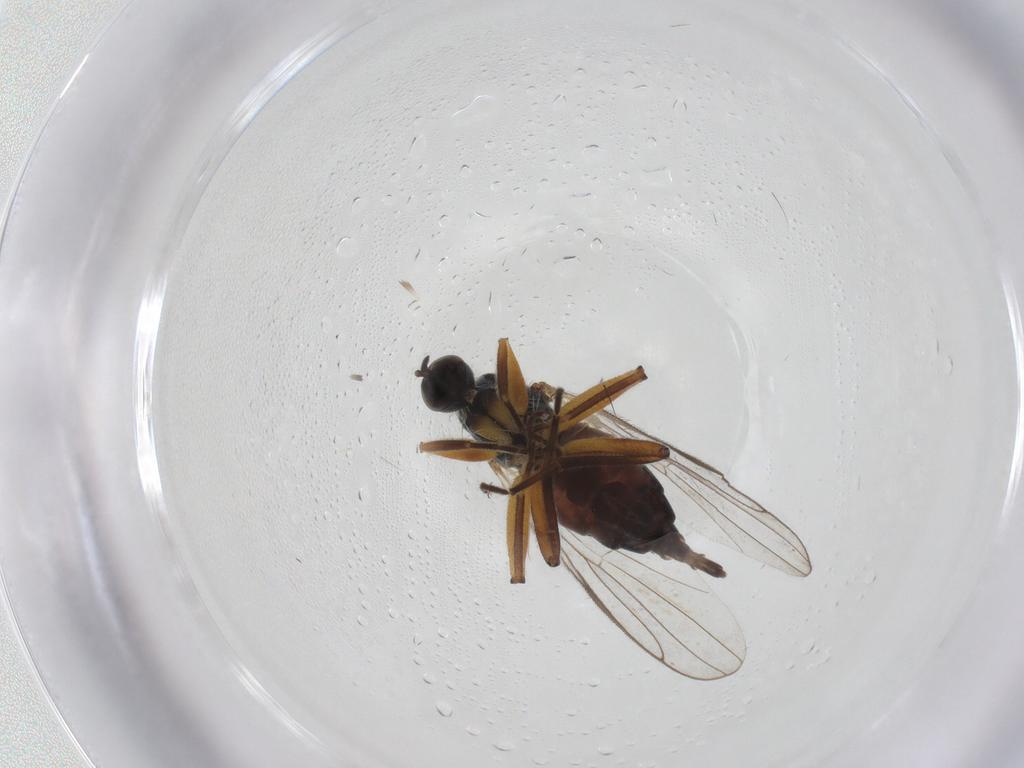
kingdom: Animalia
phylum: Arthropoda
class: Insecta
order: Diptera
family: Hybotidae
